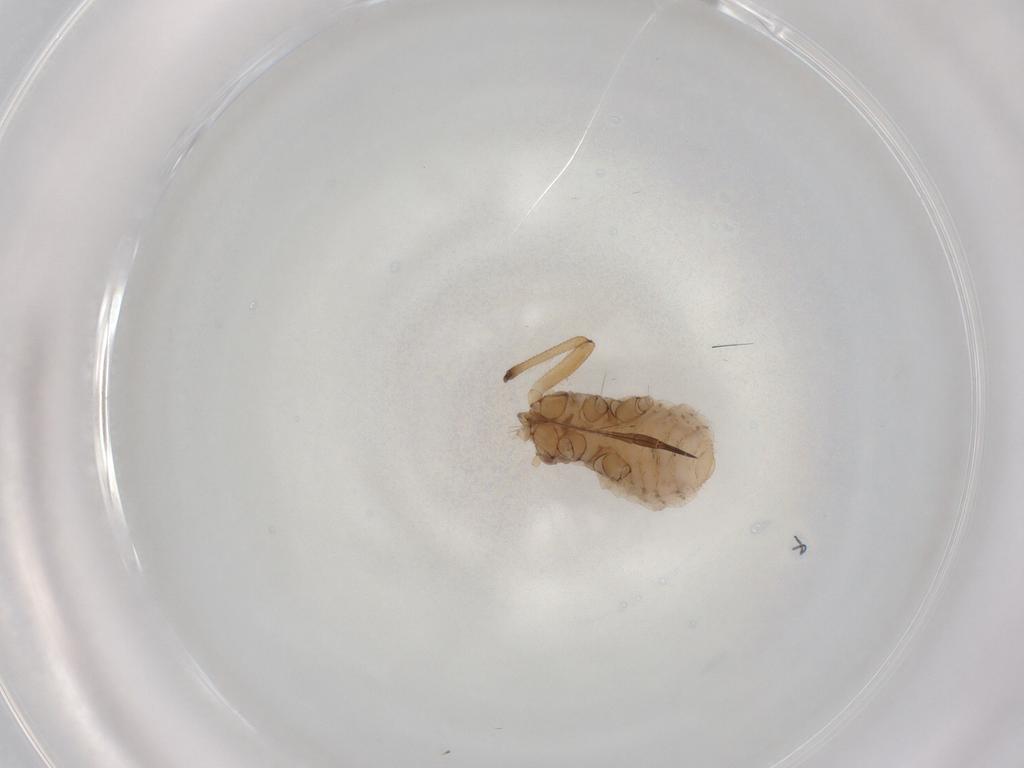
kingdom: Animalia
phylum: Arthropoda
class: Insecta
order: Hemiptera
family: Aphididae
